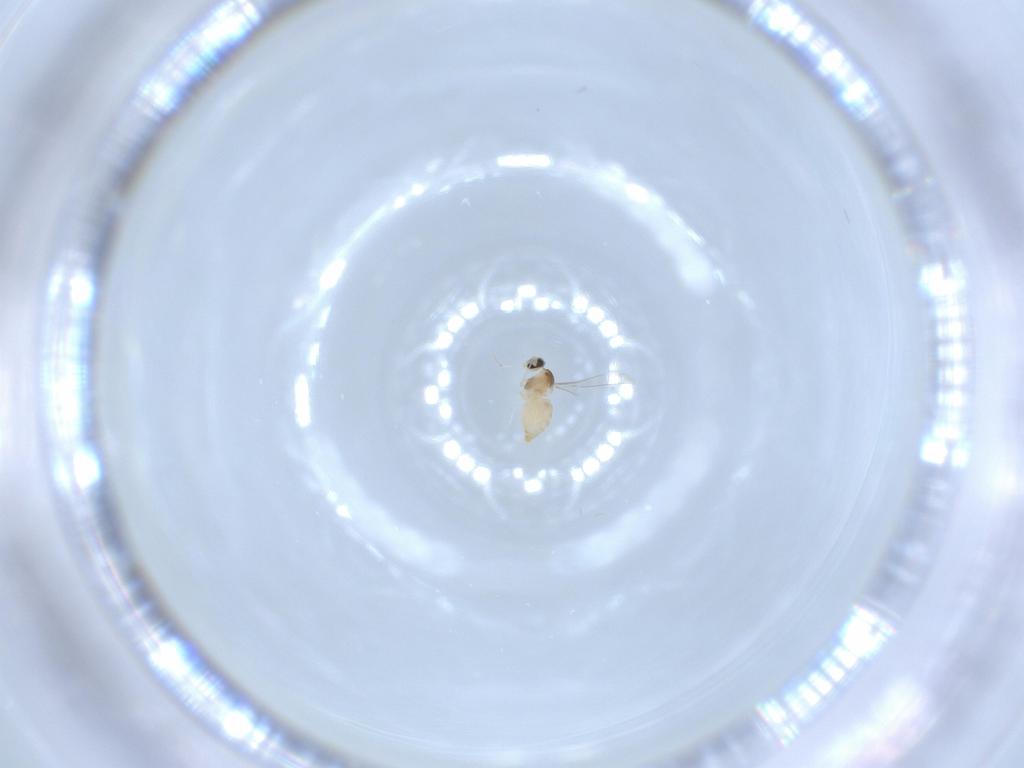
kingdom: Animalia
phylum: Arthropoda
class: Insecta
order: Diptera
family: Cecidomyiidae
